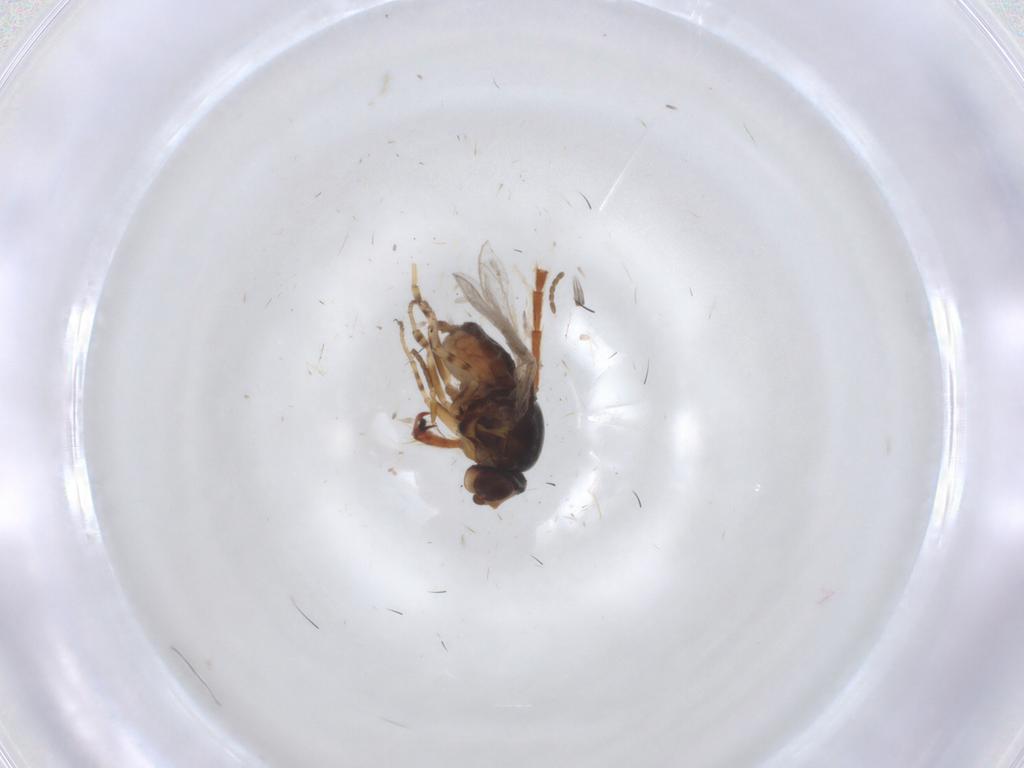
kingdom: Animalia
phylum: Arthropoda
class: Insecta
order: Diptera
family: Chloropidae
